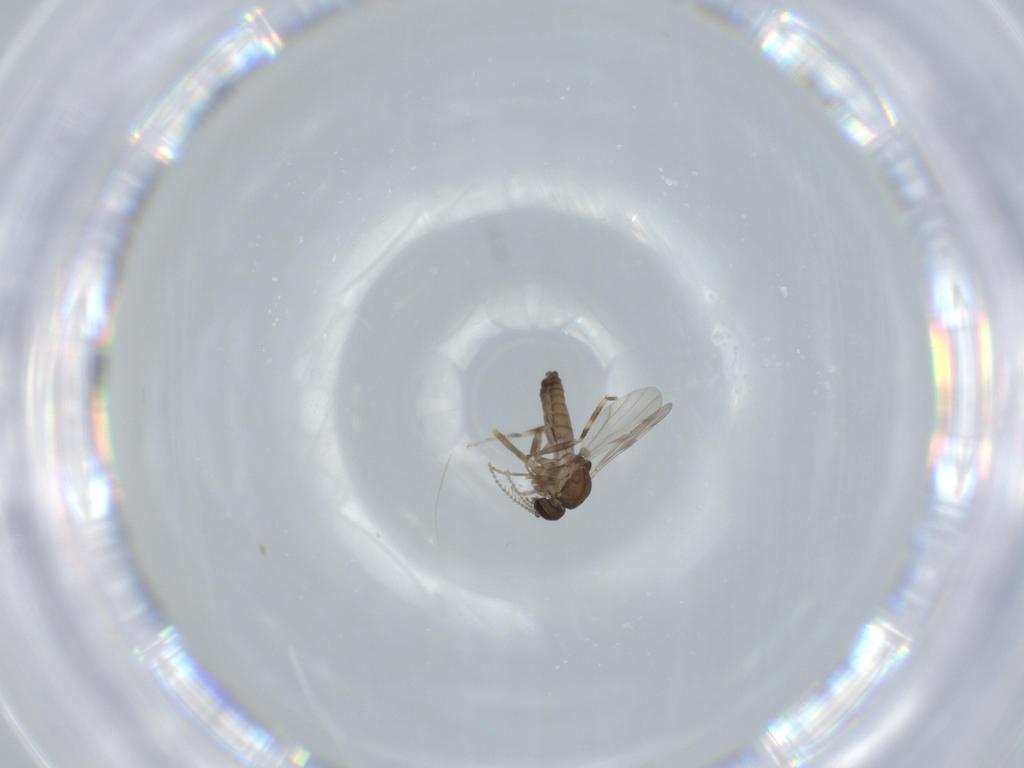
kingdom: Animalia
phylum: Arthropoda
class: Insecta
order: Diptera
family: Ceratopogonidae
